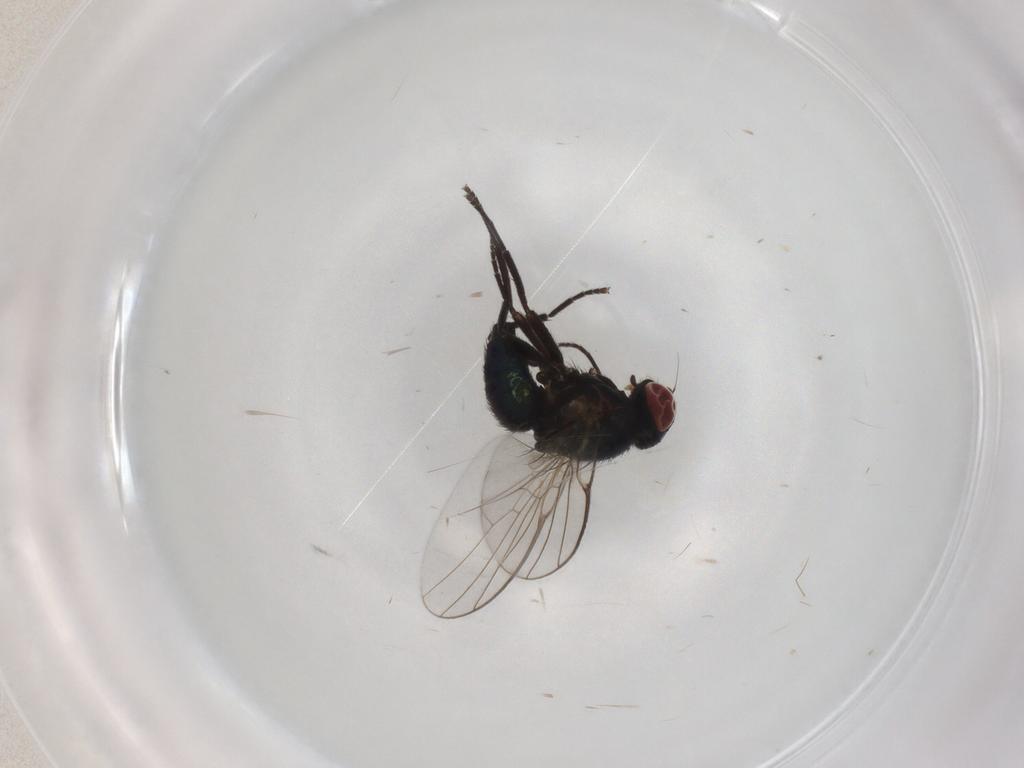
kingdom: Animalia
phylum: Arthropoda
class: Insecta
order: Diptera
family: Agromyzidae
